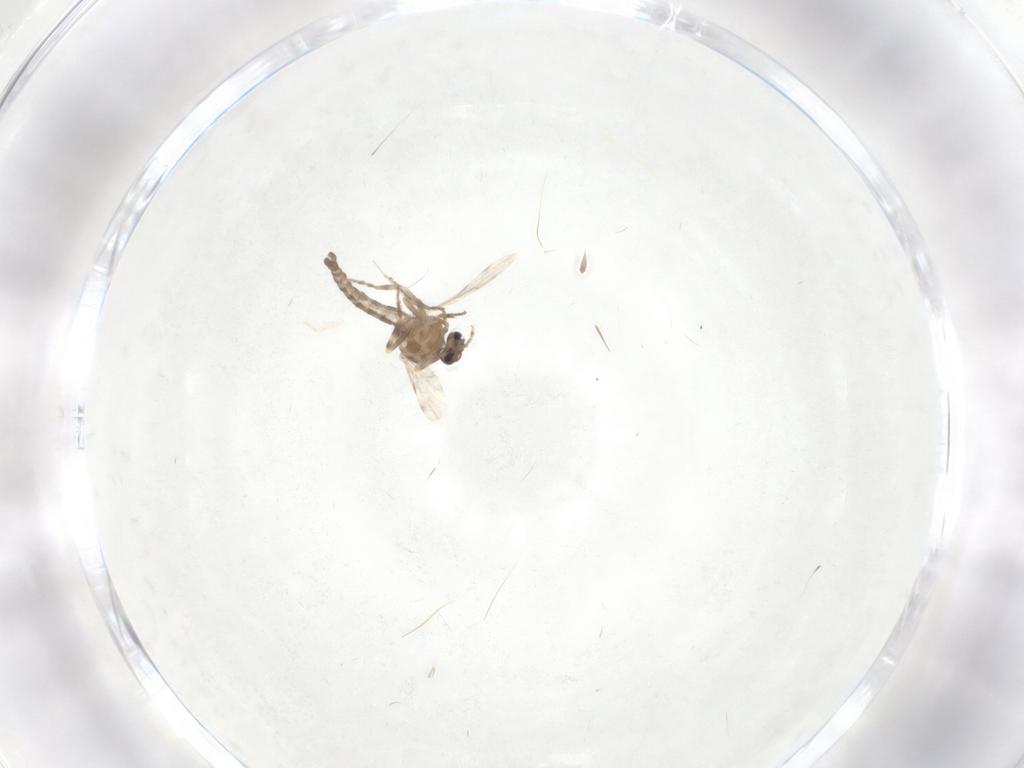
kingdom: Animalia
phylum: Arthropoda
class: Insecta
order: Diptera
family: Ceratopogonidae
